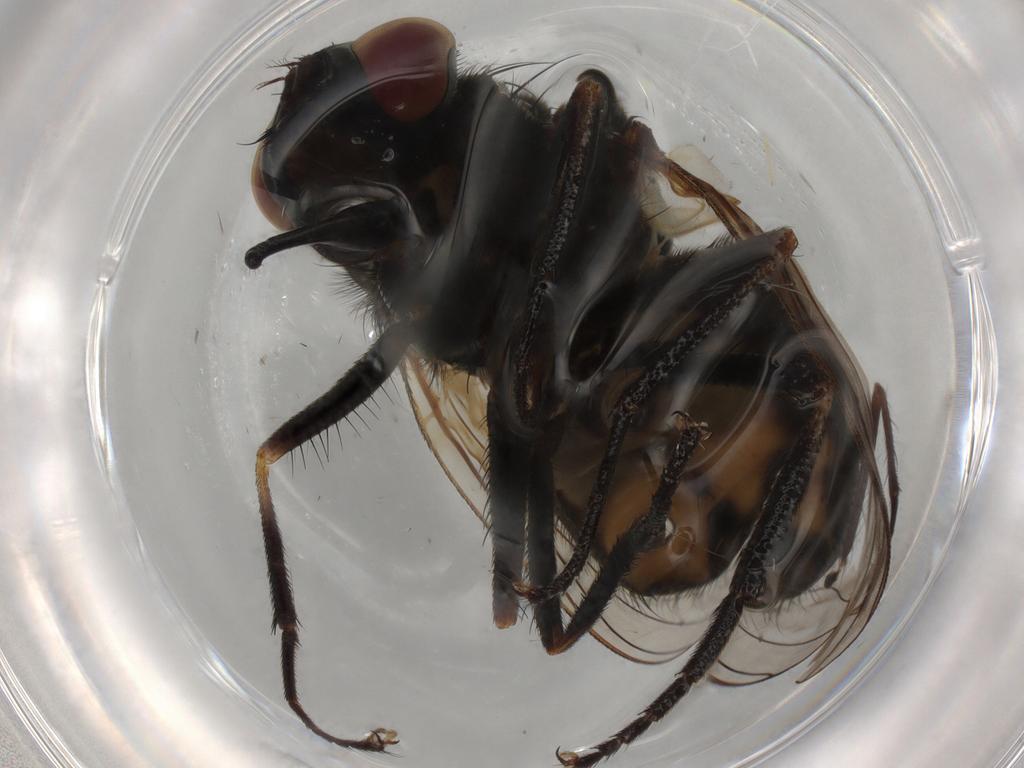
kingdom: Animalia
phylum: Arthropoda
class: Insecta
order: Diptera
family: Muscidae
